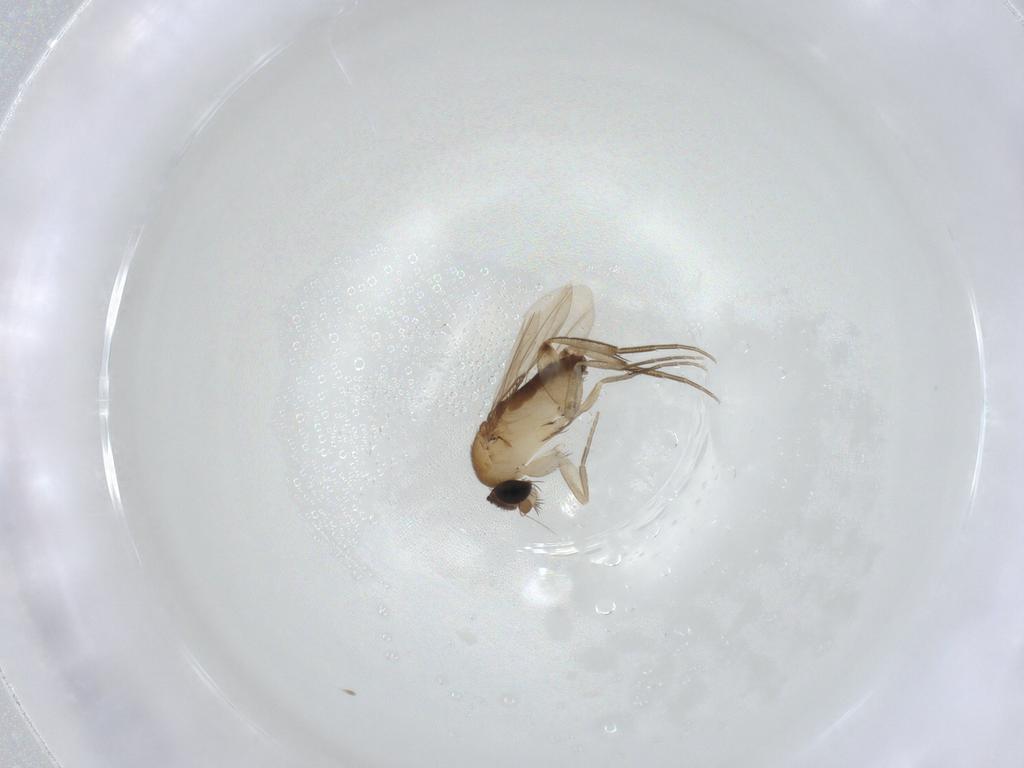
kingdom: Animalia
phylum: Arthropoda
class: Insecta
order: Diptera
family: Phoridae
